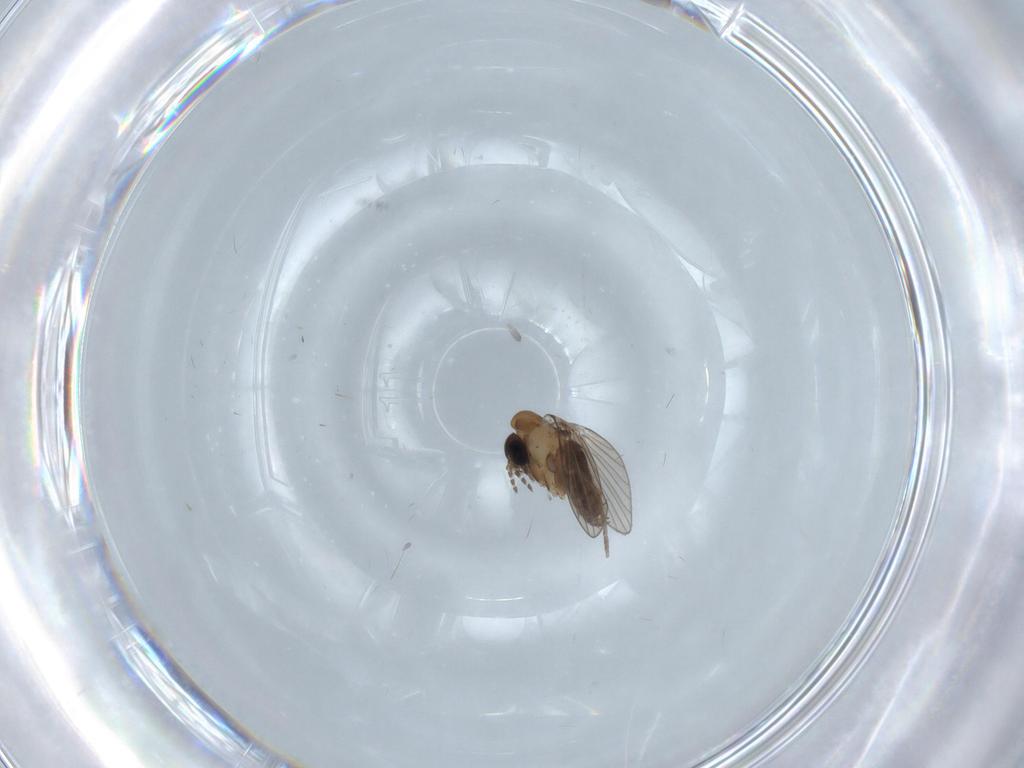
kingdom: Animalia
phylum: Arthropoda
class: Insecta
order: Diptera
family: Psychodidae
